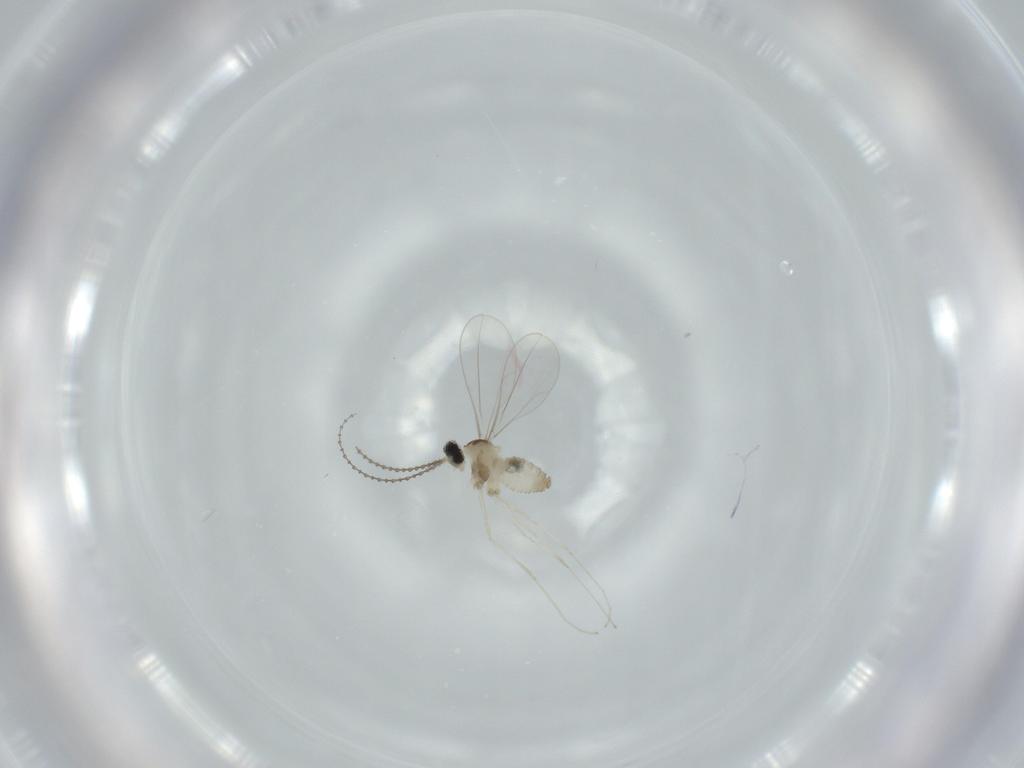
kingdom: Animalia
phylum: Arthropoda
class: Insecta
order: Diptera
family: Cecidomyiidae
